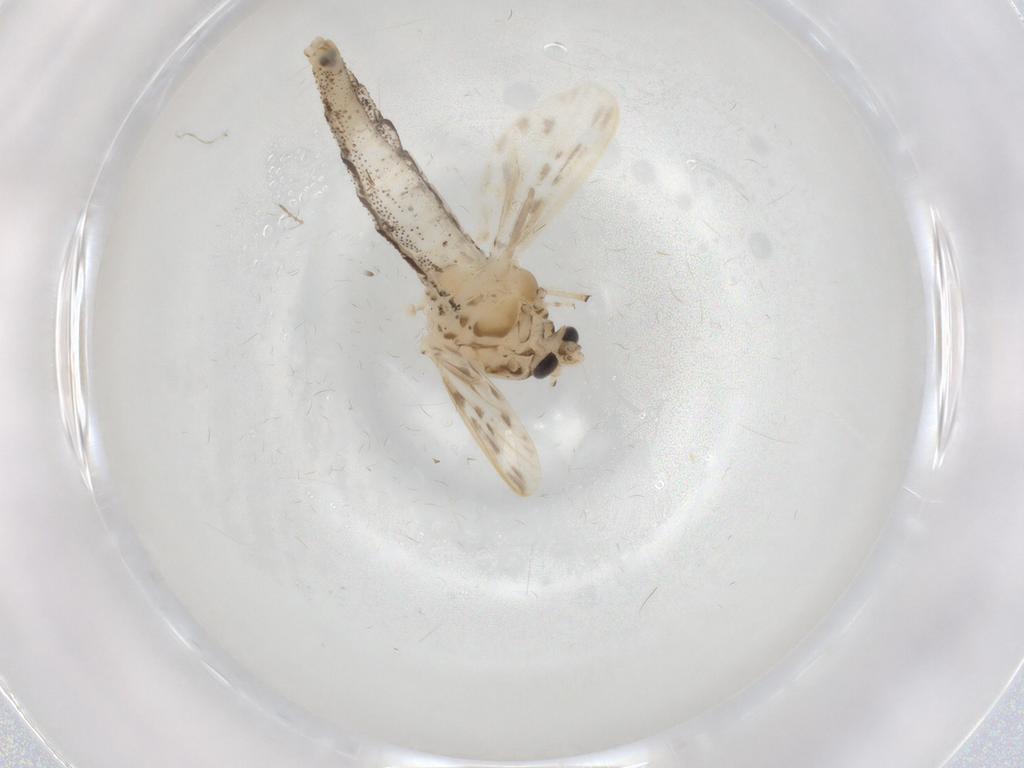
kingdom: Animalia
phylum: Arthropoda
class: Insecta
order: Diptera
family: Chaoboridae
